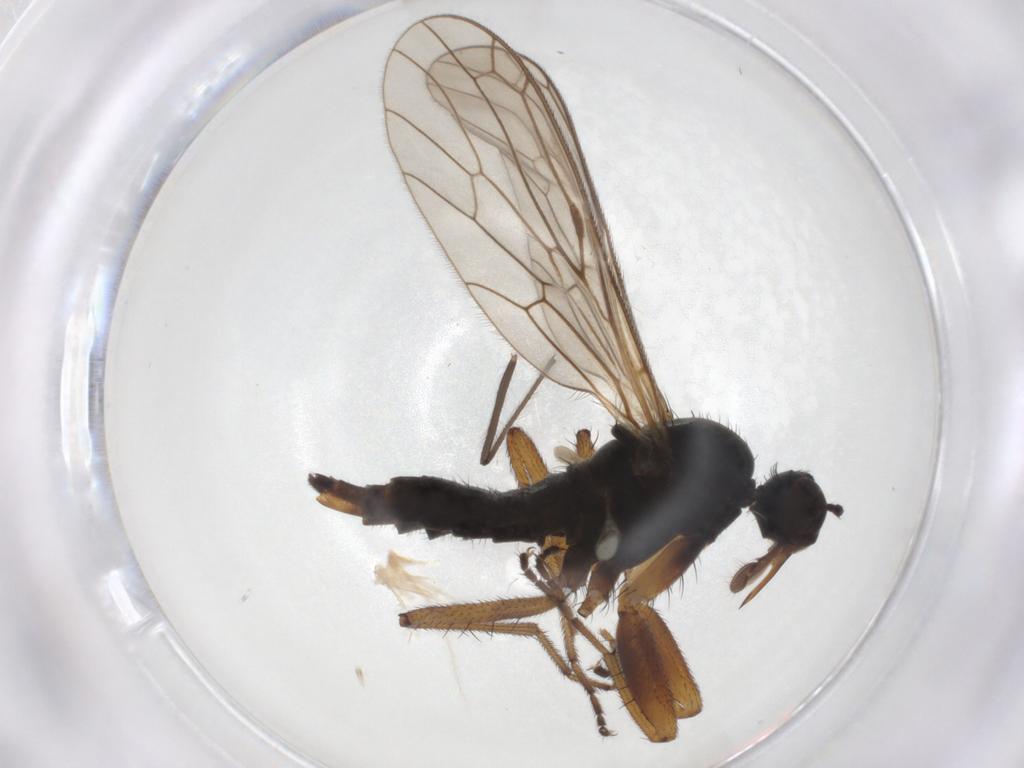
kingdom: Animalia
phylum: Arthropoda
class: Insecta
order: Diptera
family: Ceratopogonidae
